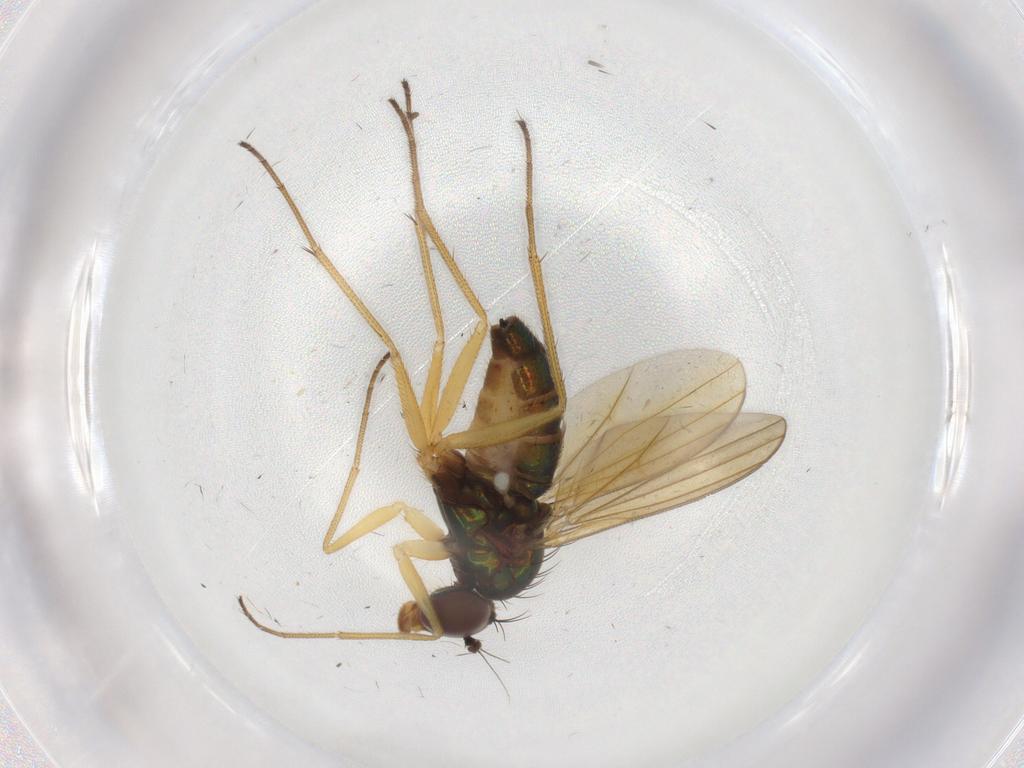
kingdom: Animalia
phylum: Arthropoda
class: Insecta
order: Diptera
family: Dolichopodidae
